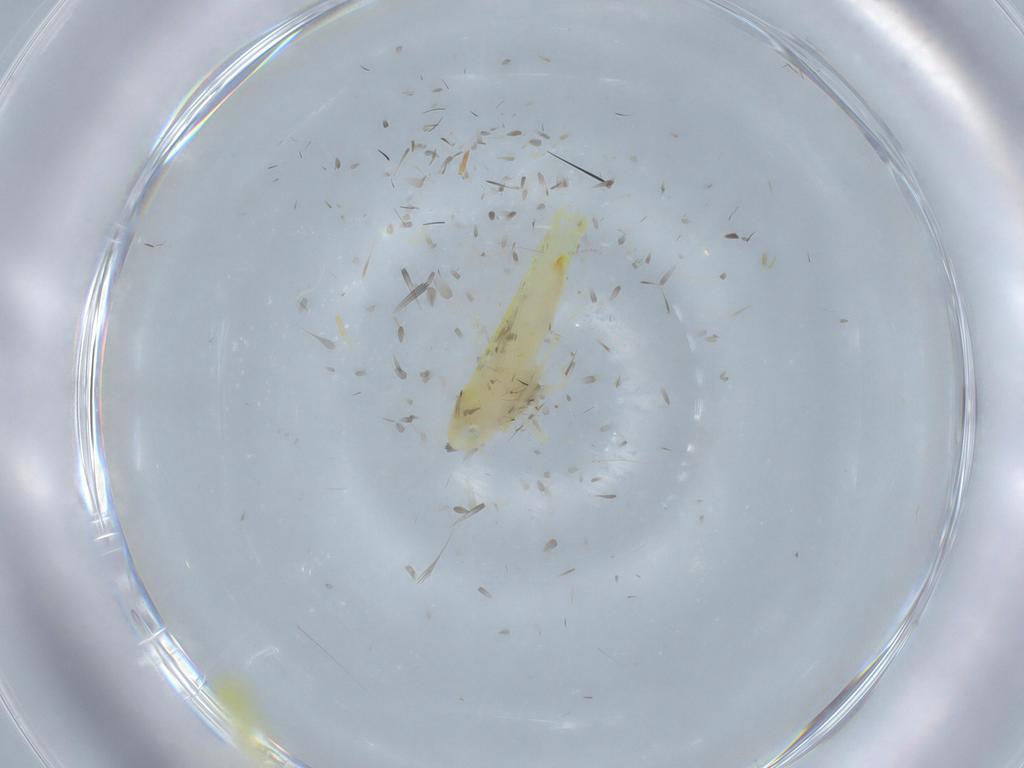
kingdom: Animalia
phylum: Arthropoda
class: Insecta
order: Hemiptera
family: Cicadellidae
